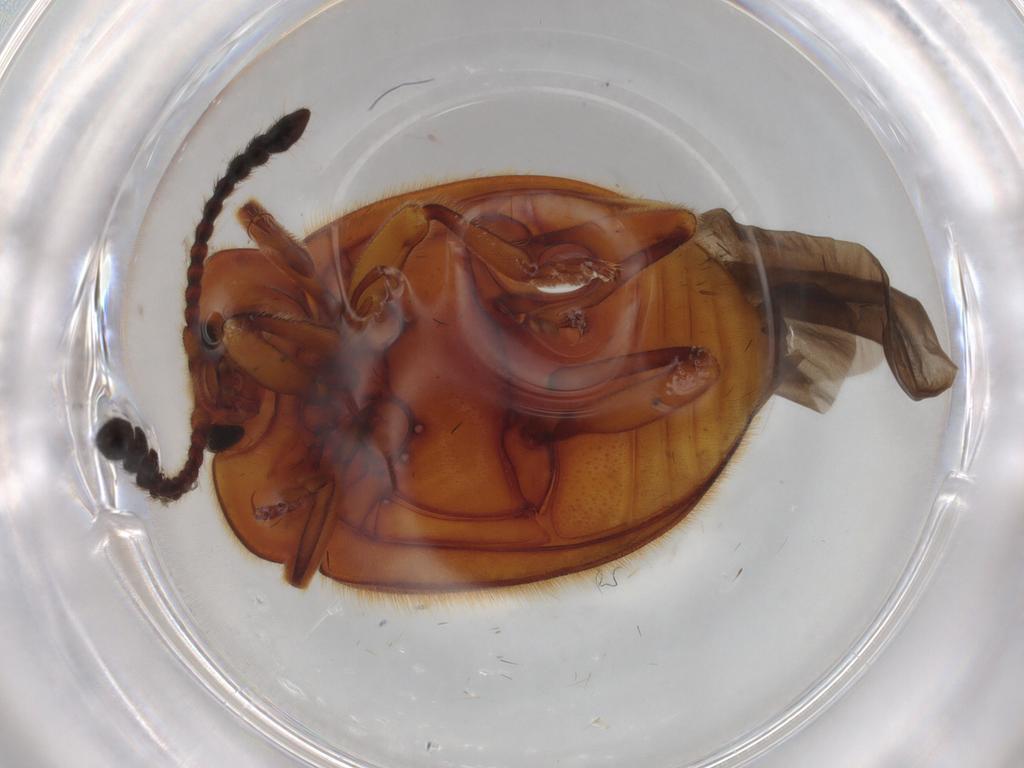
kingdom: Animalia
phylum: Arthropoda
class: Insecta
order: Coleoptera
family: Endomychidae
